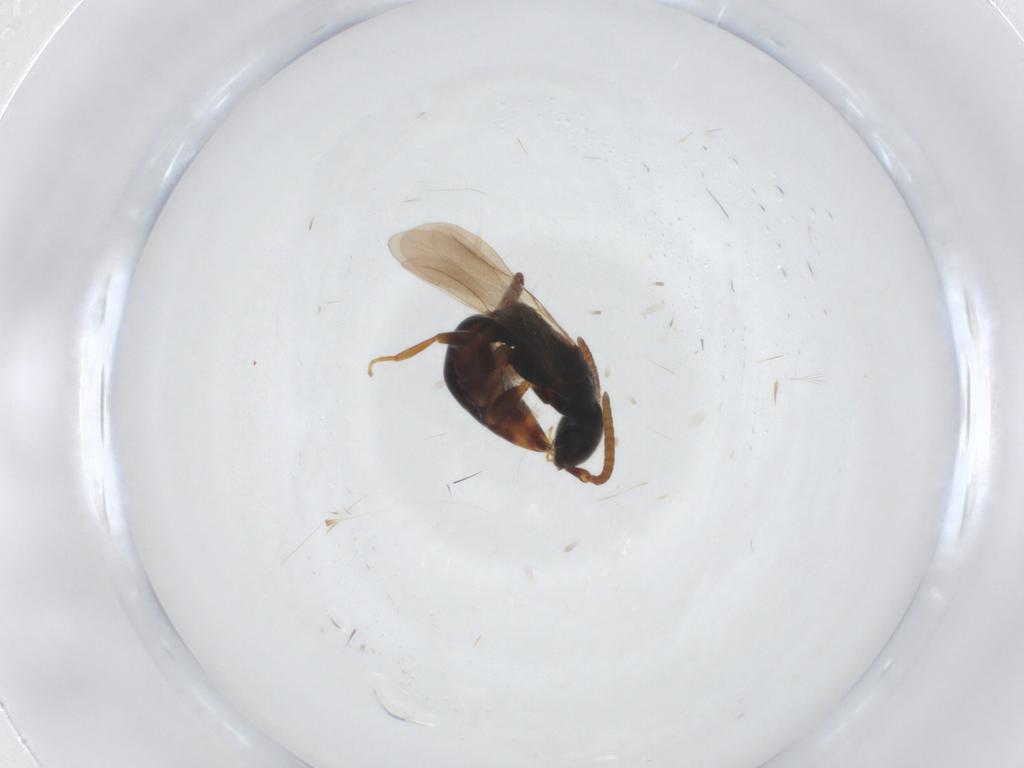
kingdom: Animalia
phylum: Arthropoda
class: Insecta
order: Hymenoptera
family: Bethylidae
